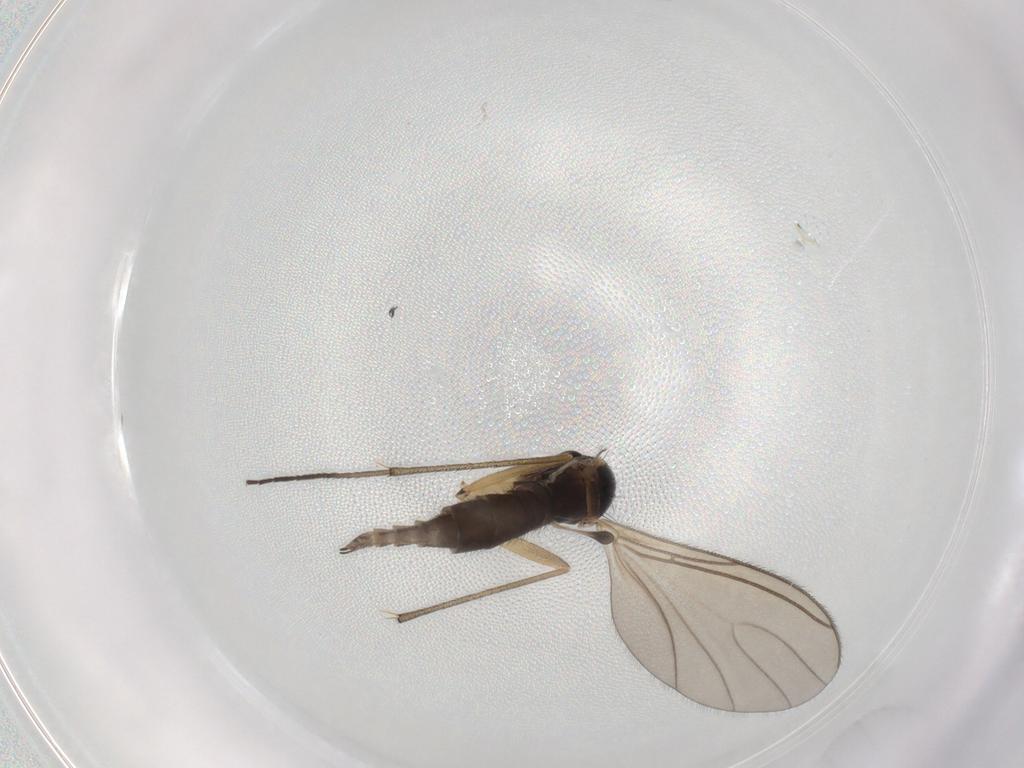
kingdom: Animalia
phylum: Arthropoda
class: Insecta
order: Diptera
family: Sciaridae
